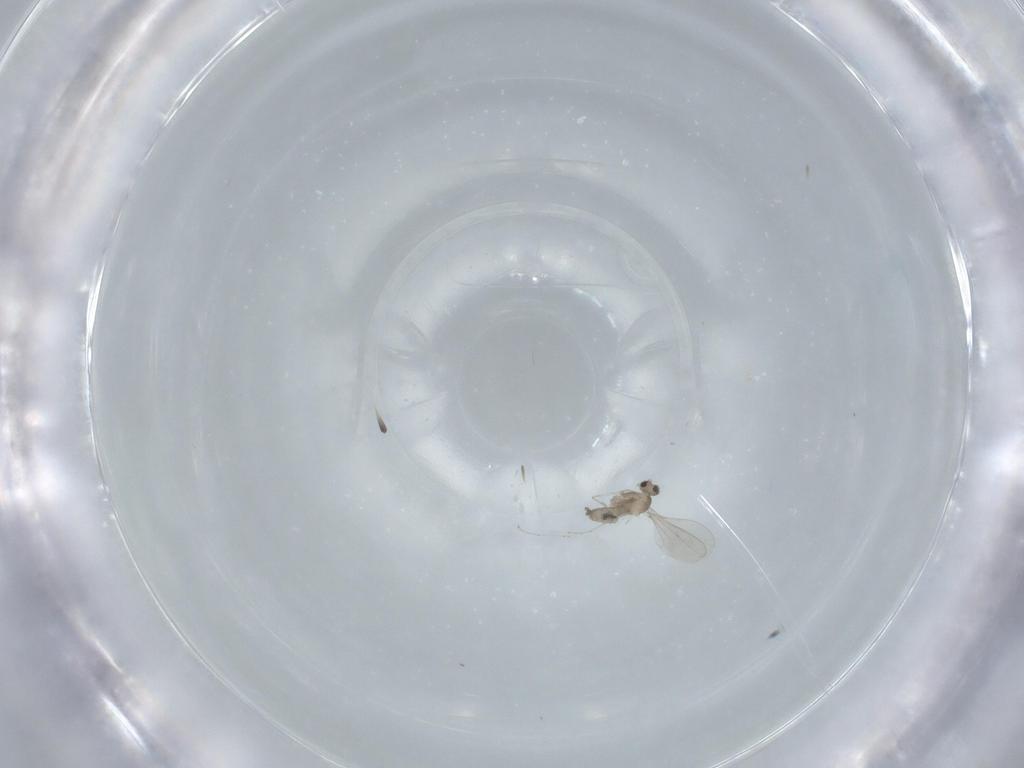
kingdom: Animalia
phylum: Arthropoda
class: Insecta
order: Diptera
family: Cecidomyiidae
